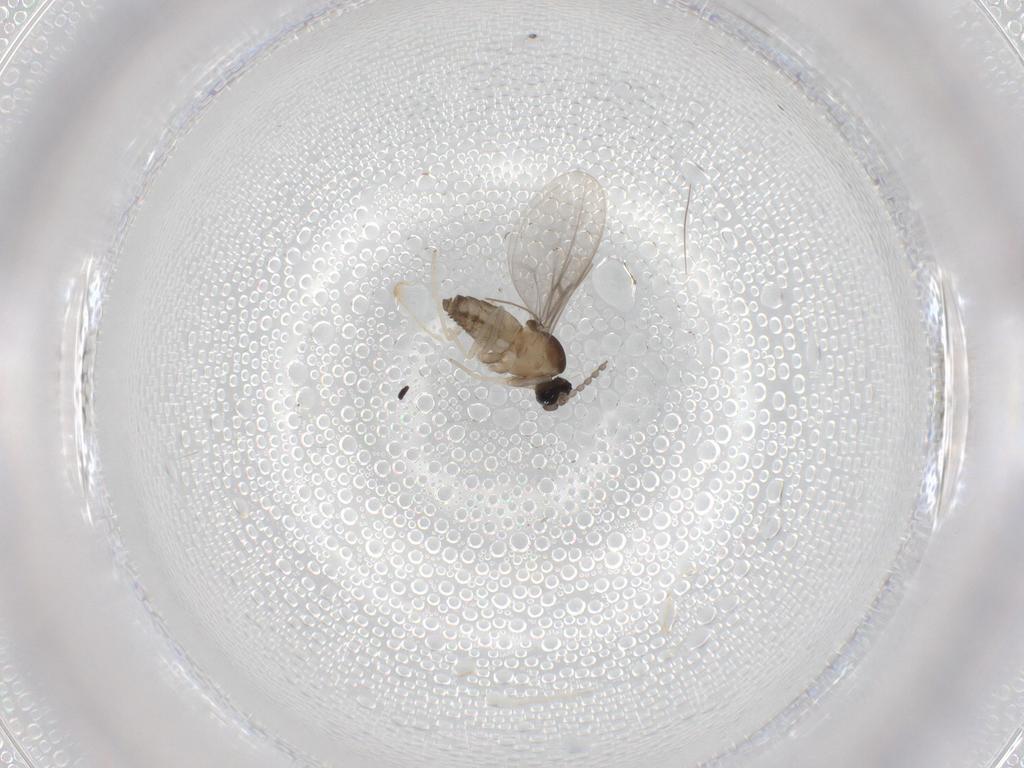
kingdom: Animalia
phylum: Arthropoda
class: Insecta
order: Diptera
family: Cecidomyiidae
